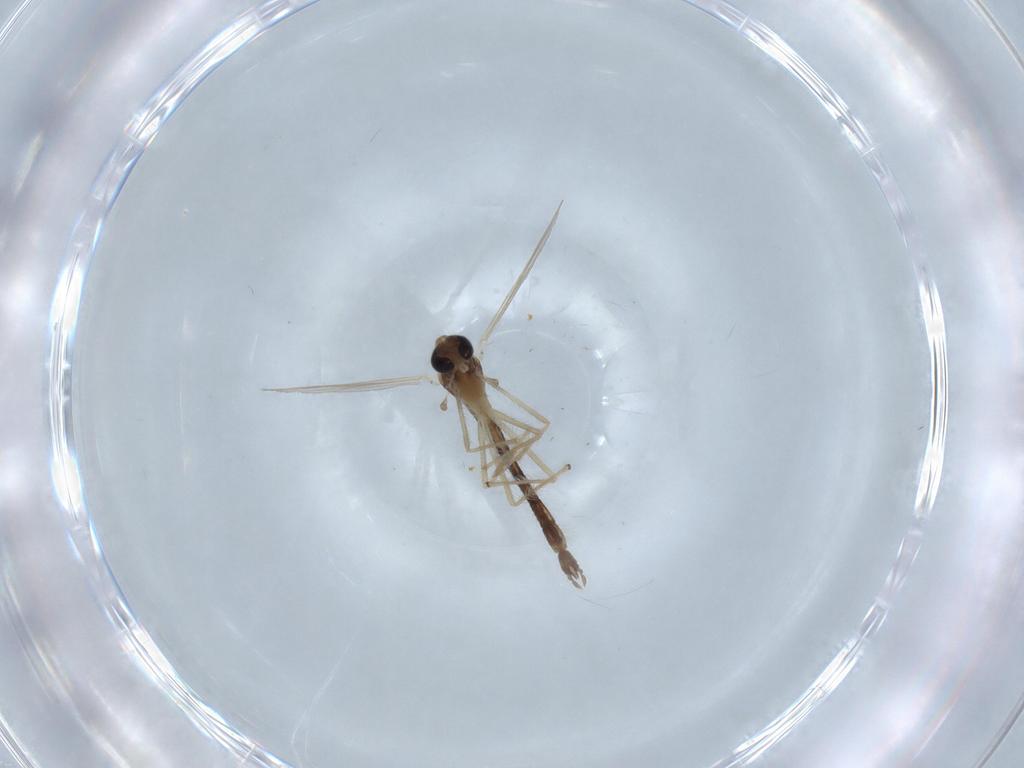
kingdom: Animalia
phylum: Arthropoda
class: Insecta
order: Diptera
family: Chironomidae
